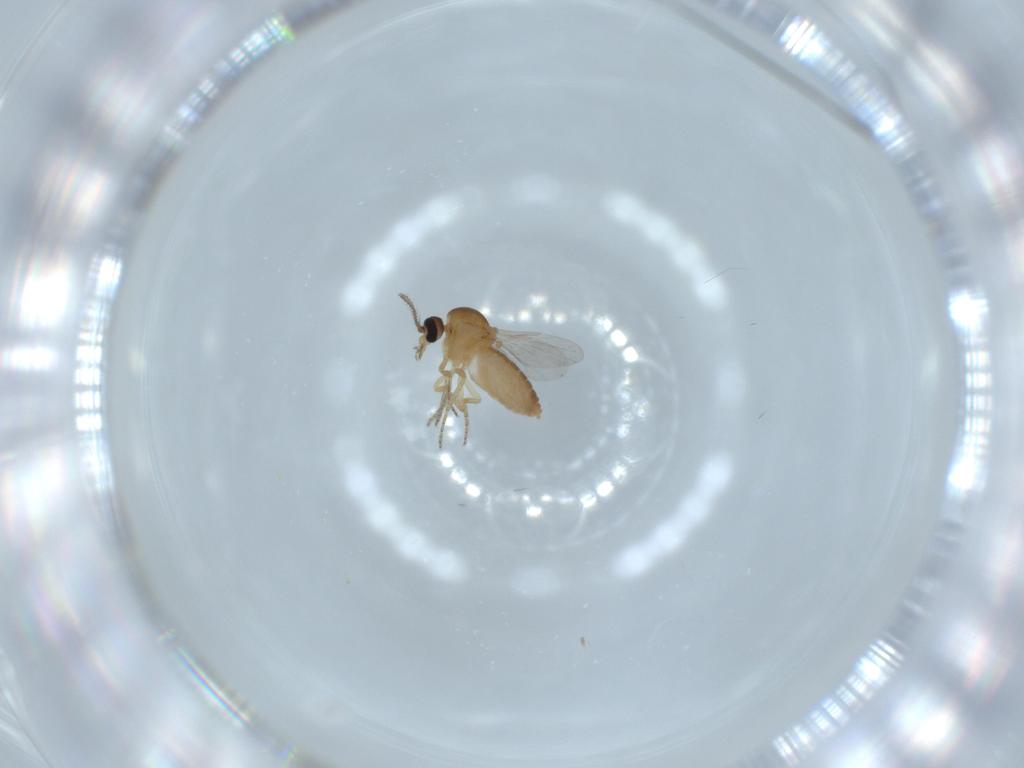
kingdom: Animalia
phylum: Arthropoda
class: Insecta
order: Diptera
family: Ceratopogonidae
